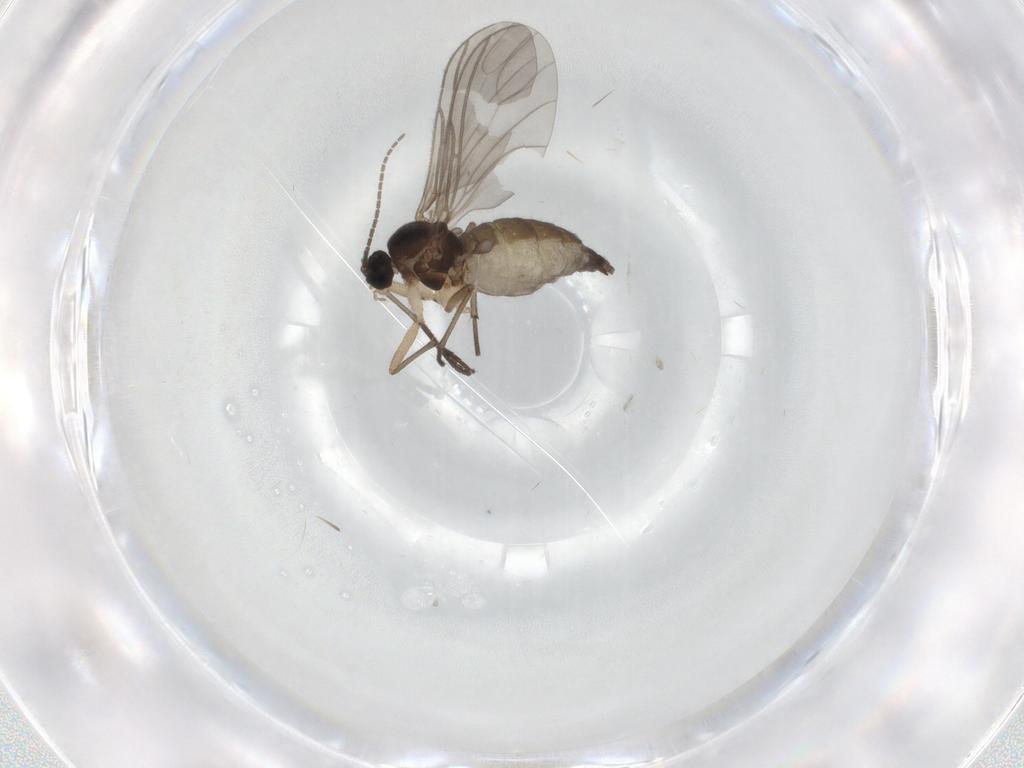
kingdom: Animalia
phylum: Arthropoda
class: Insecta
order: Diptera
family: Sciaridae
